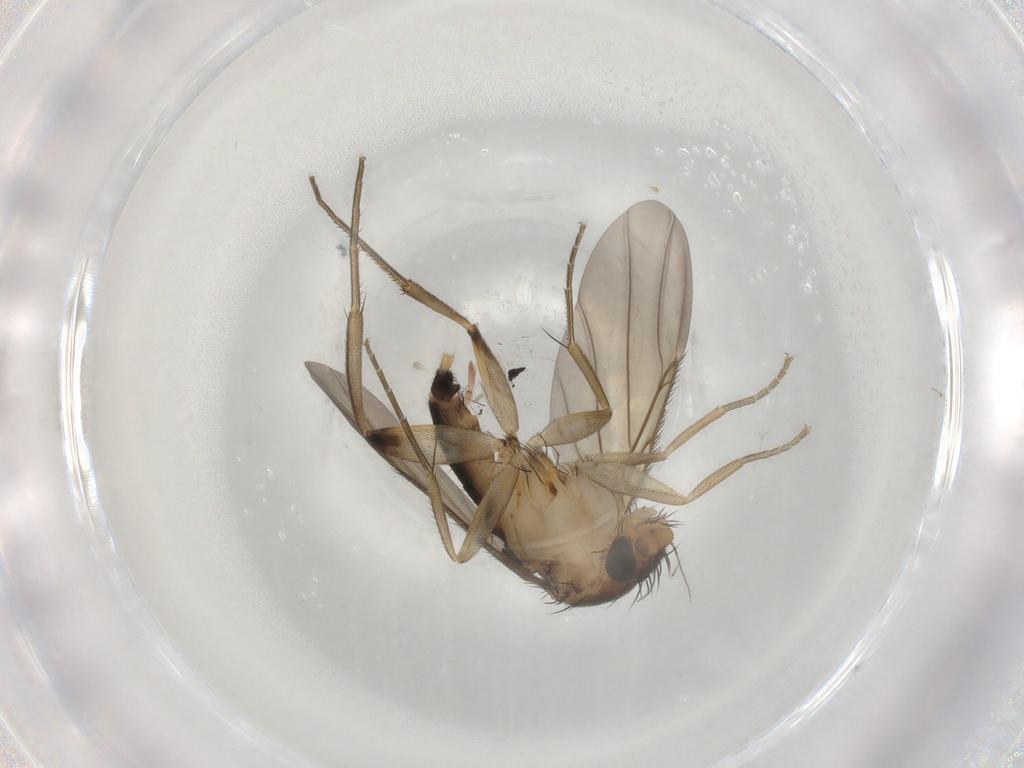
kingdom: Animalia
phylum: Arthropoda
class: Insecta
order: Diptera
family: Phoridae
